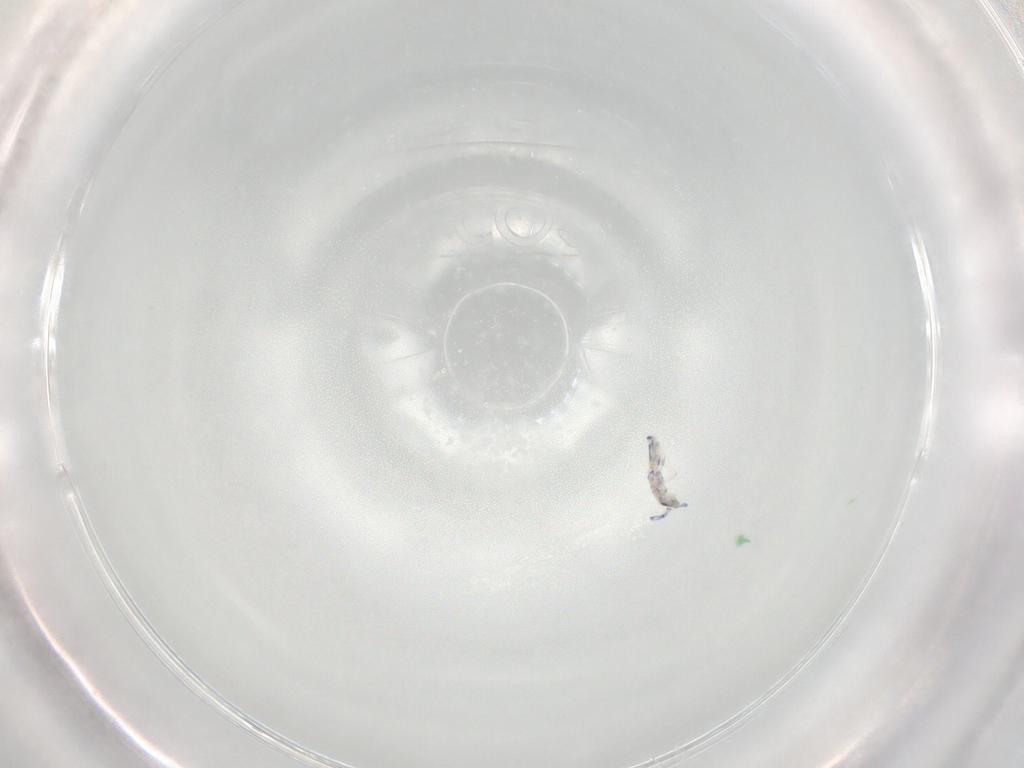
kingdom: Animalia
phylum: Arthropoda
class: Collembola
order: Entomobryomorpha
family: Entomobryidae
